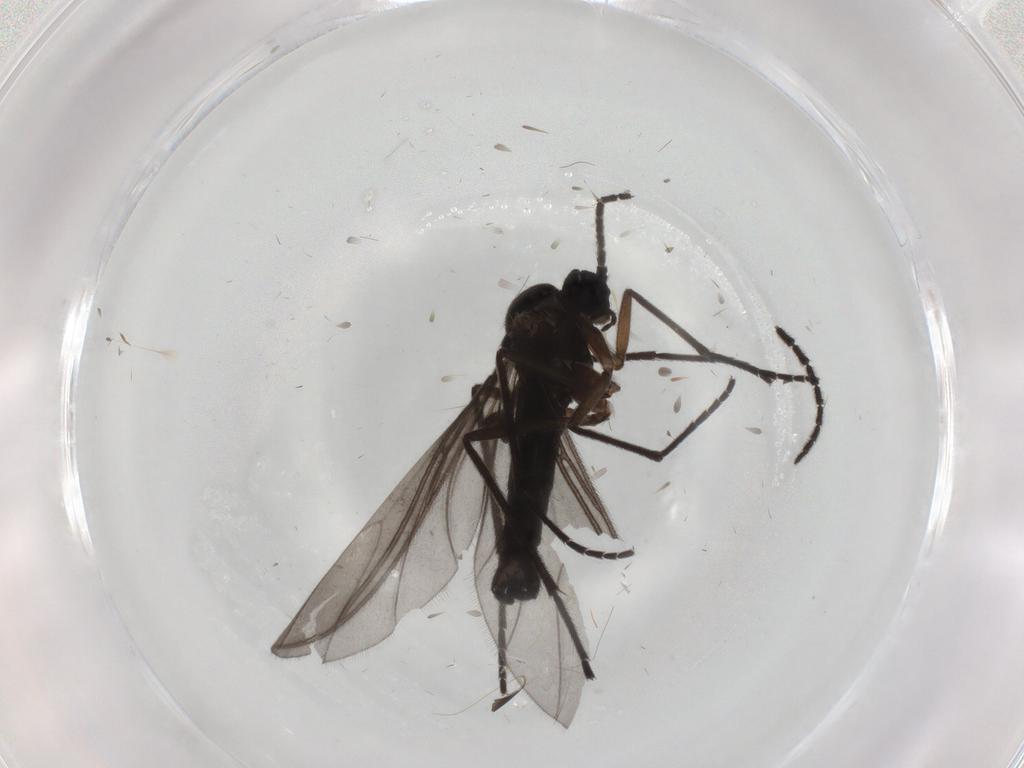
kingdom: Animalia
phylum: Arthropoda
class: Insecta
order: Diptera
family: Sciaridae
